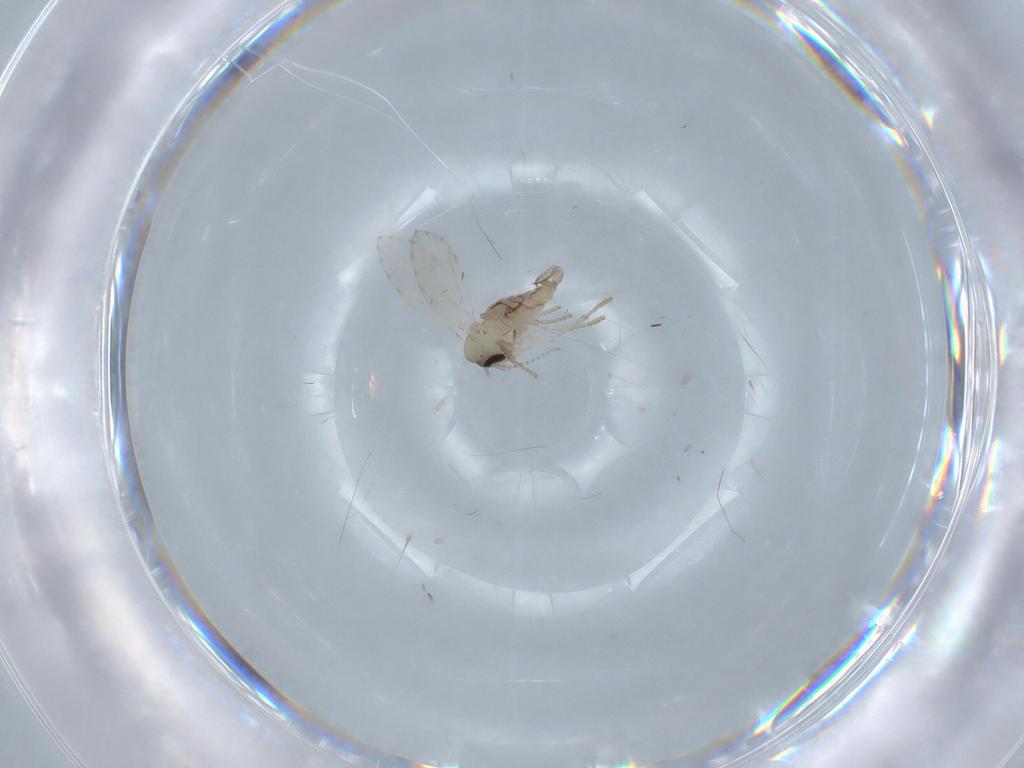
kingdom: Animalia
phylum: Arthropoda
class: Insecta
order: Diptera
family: Psychodidae
